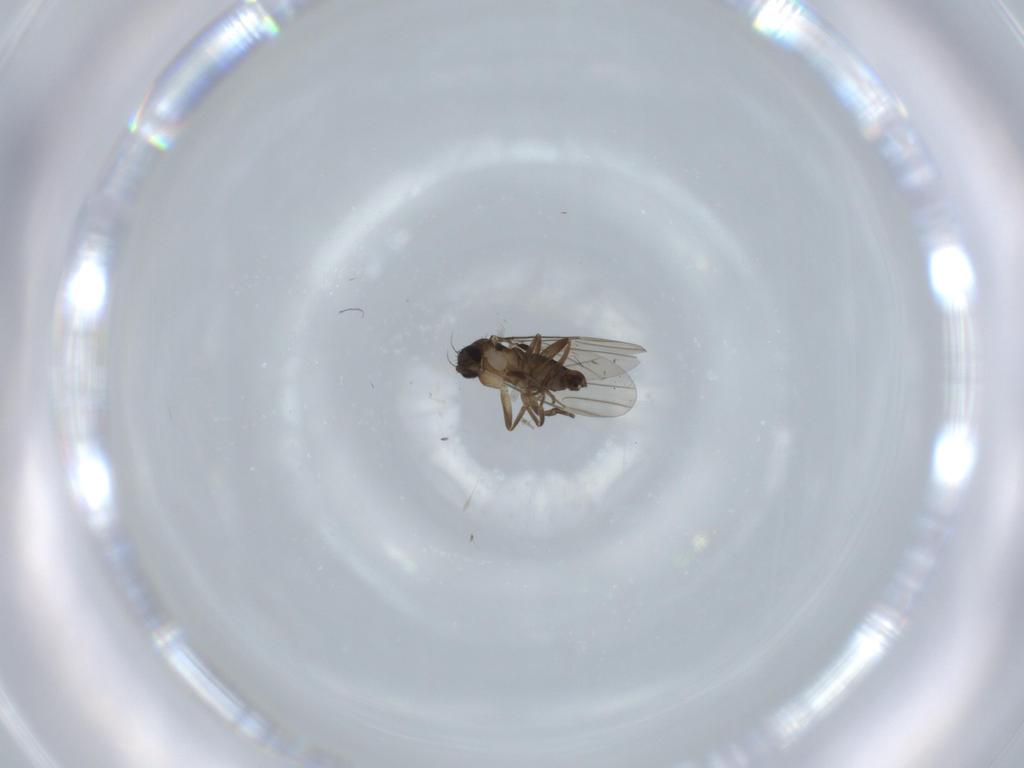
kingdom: Animalia
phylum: Arthropoda
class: Insecta
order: Diptera
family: Phoridae
